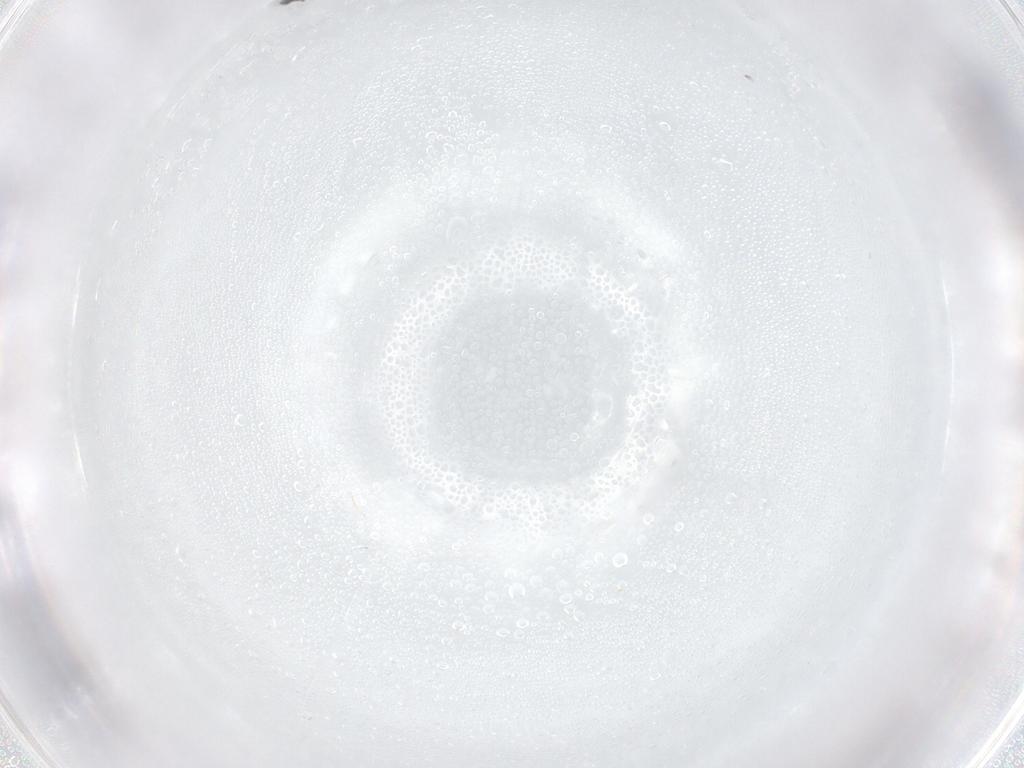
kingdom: Animalia
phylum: Arthropoda
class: Insecta
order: Hymenoptera
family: Mymaridae
